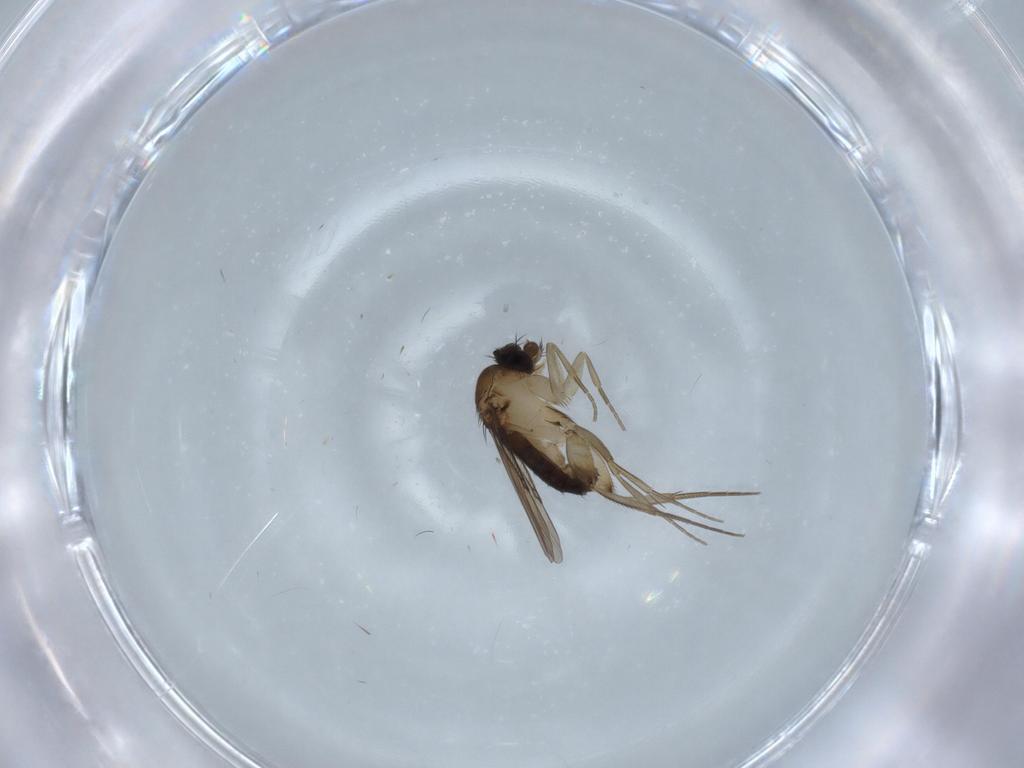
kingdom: Animalia
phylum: Arthropoda
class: Insecta
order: Diptera
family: Phoridae
